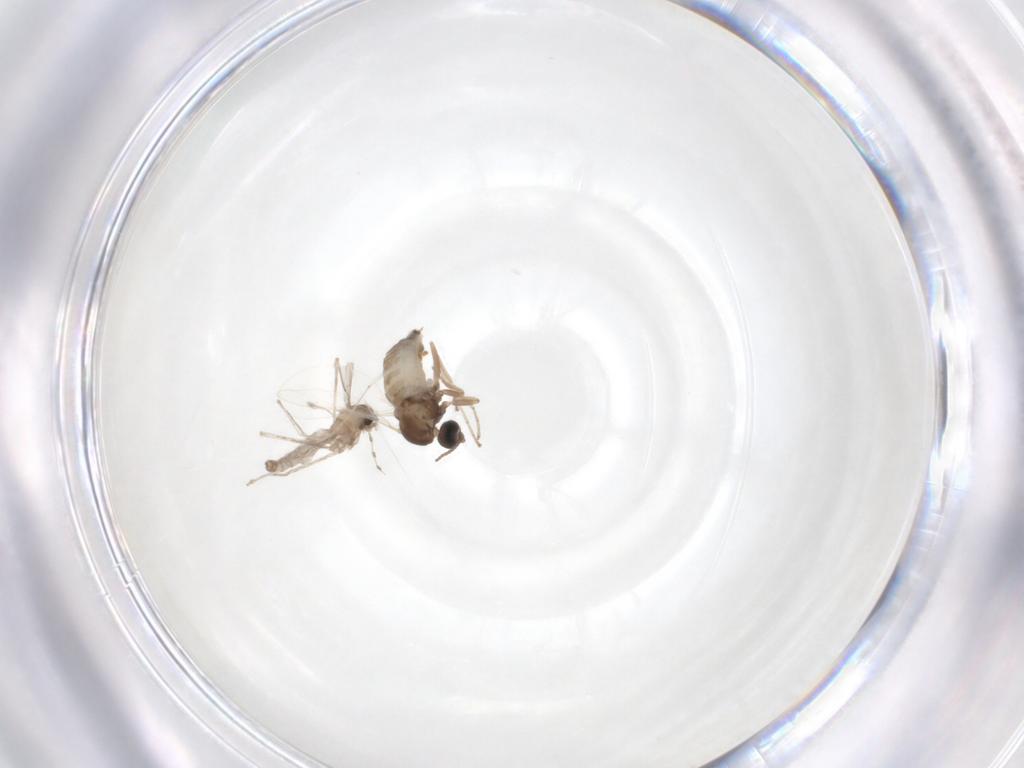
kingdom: Animalia
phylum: Arthropoda
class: Insecta
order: Diptera
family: Cecidomyiidae
